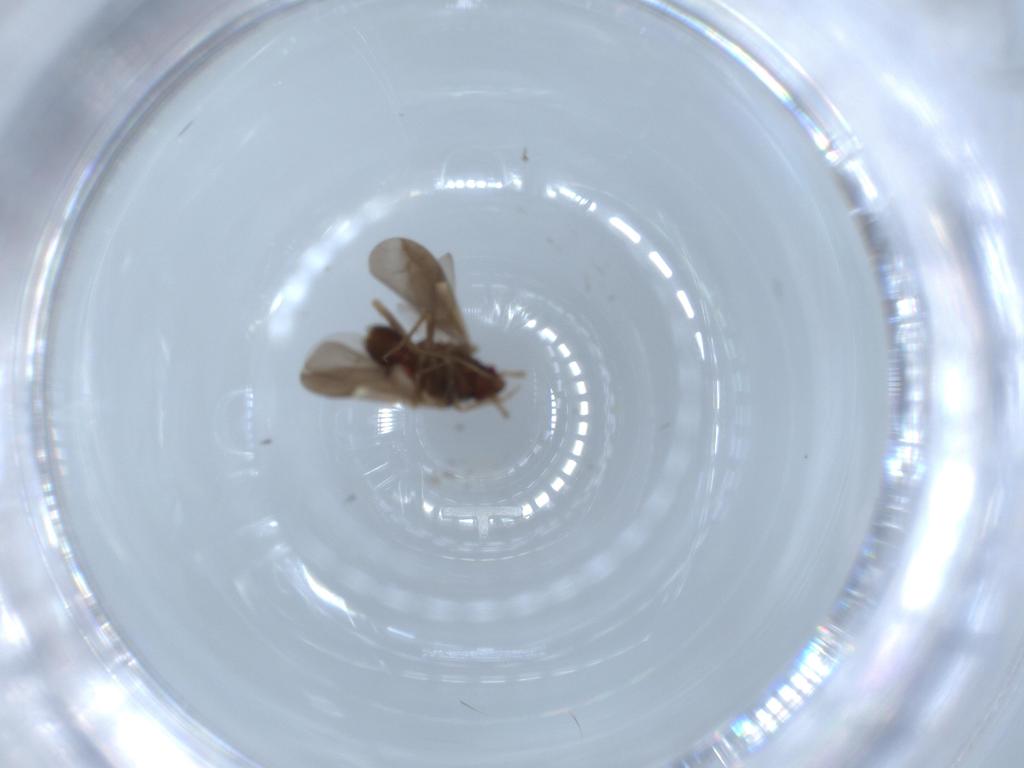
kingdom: Animalia
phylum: Arthropoda
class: Insecta
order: Hemiptera
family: Ceratocombidae
